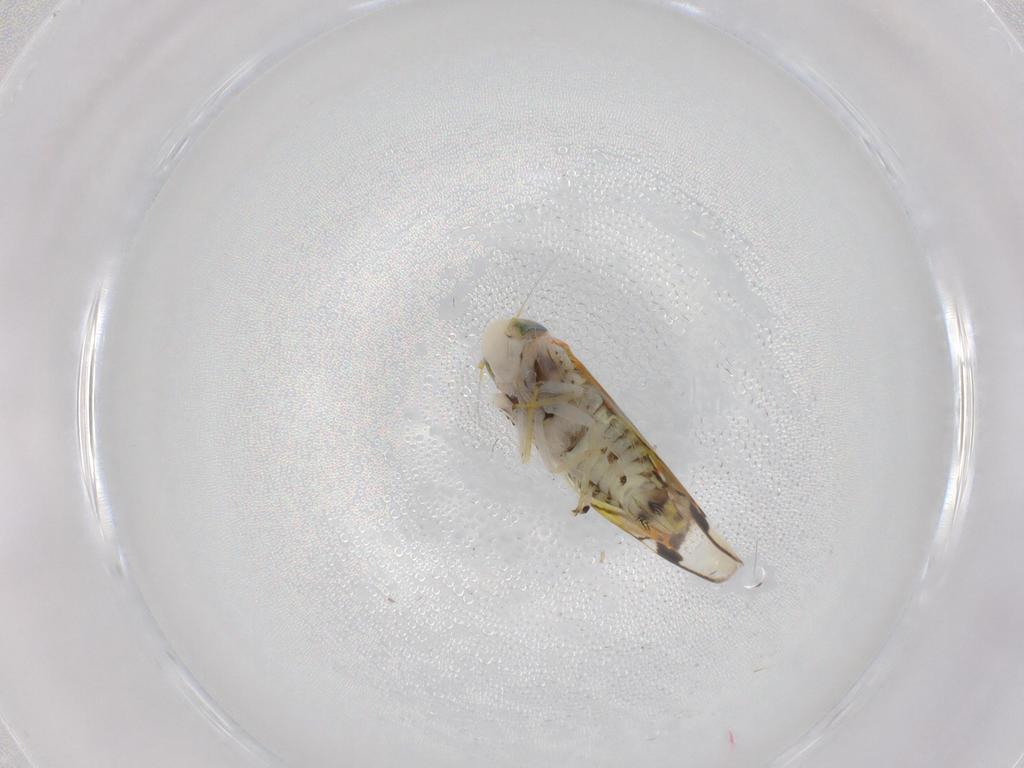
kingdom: Animalia
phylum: Arthropoda
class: Insecta
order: Hemiptera
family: Cicadellidae
